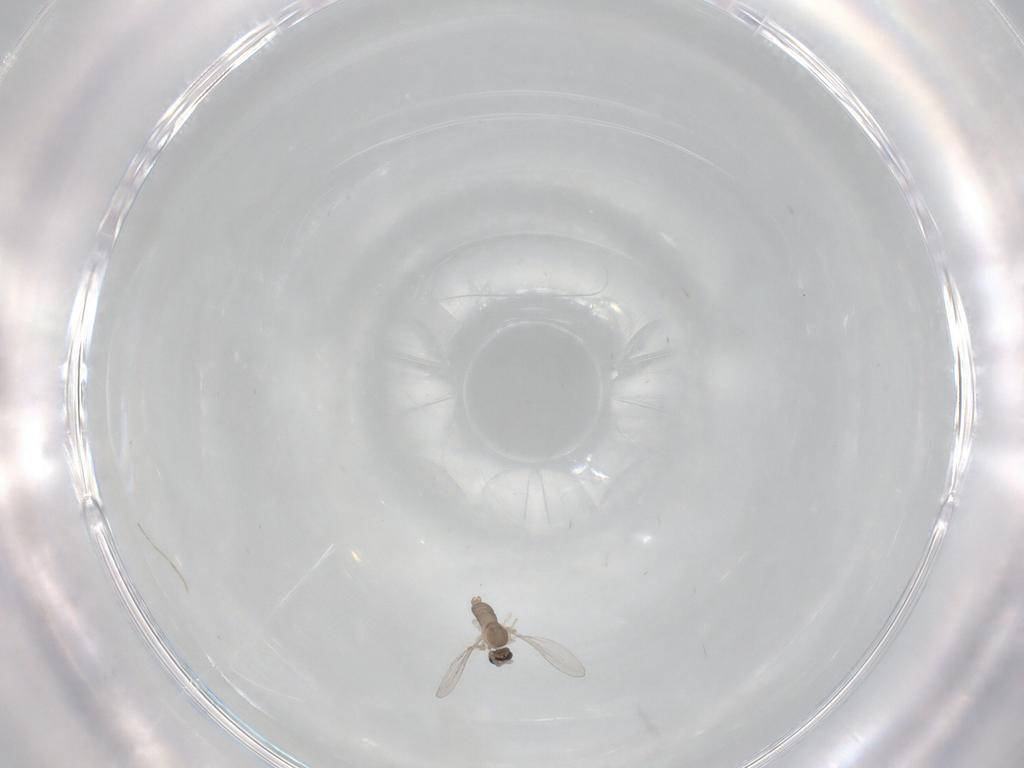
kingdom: Animalia
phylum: Arthropoda
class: Insecta
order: Diptera
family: Cecidomyiidae
